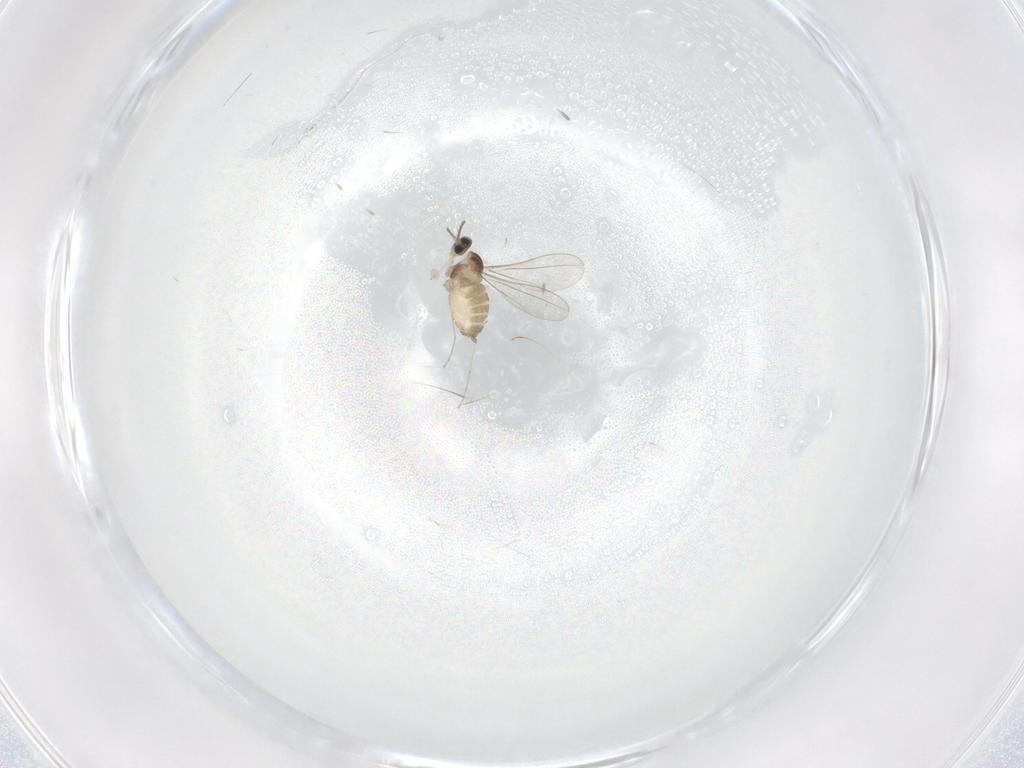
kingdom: Animalia
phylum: Arthropoda
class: Insecta
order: Diptera
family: Cecidomyiidae
